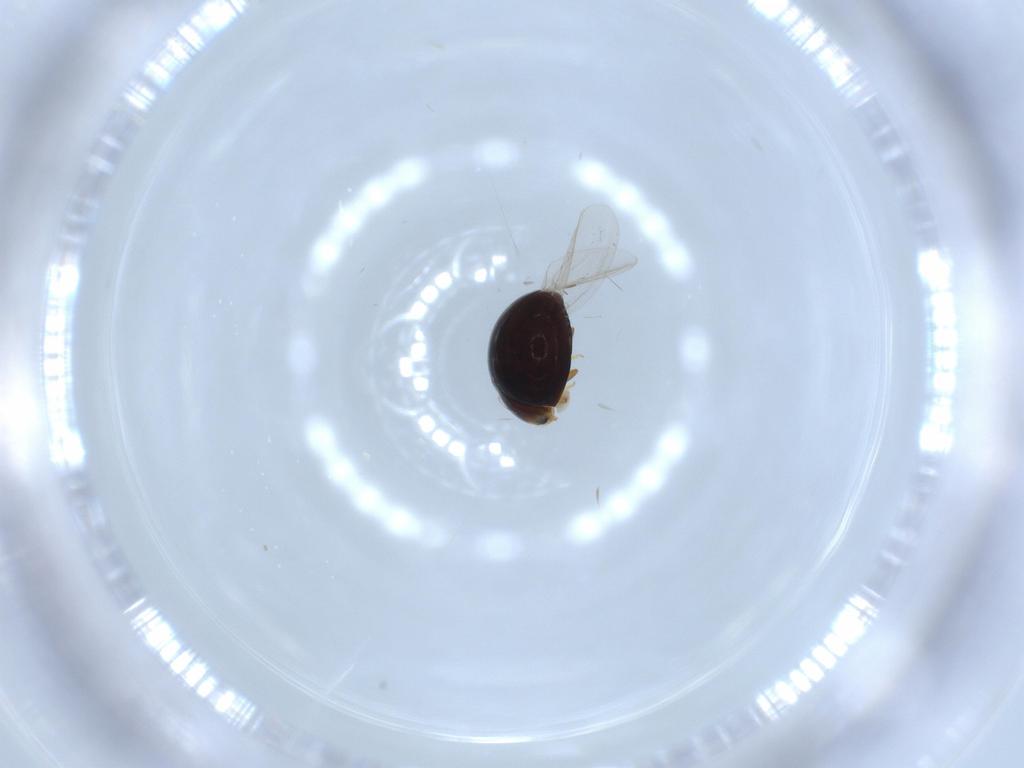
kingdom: Animalia
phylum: Arthropoda
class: Insecta
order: Coleoptera
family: Corylophidae
